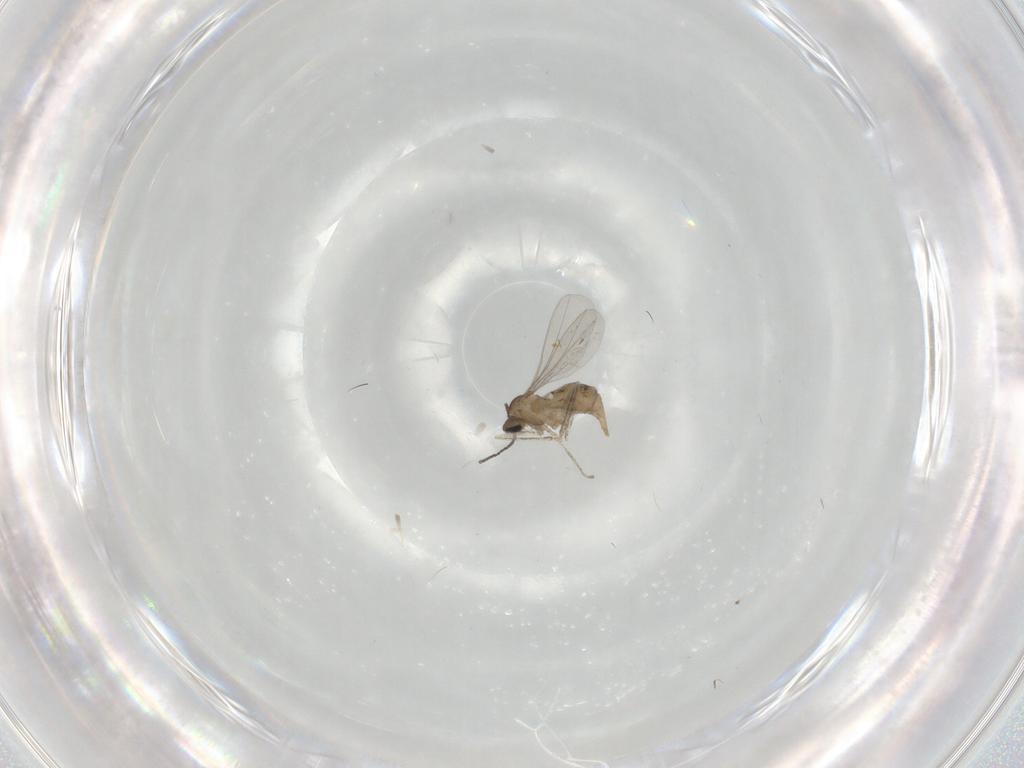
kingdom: Animalia
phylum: Arthropoda
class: Insecta
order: Diptera
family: Cecidomyiidae
